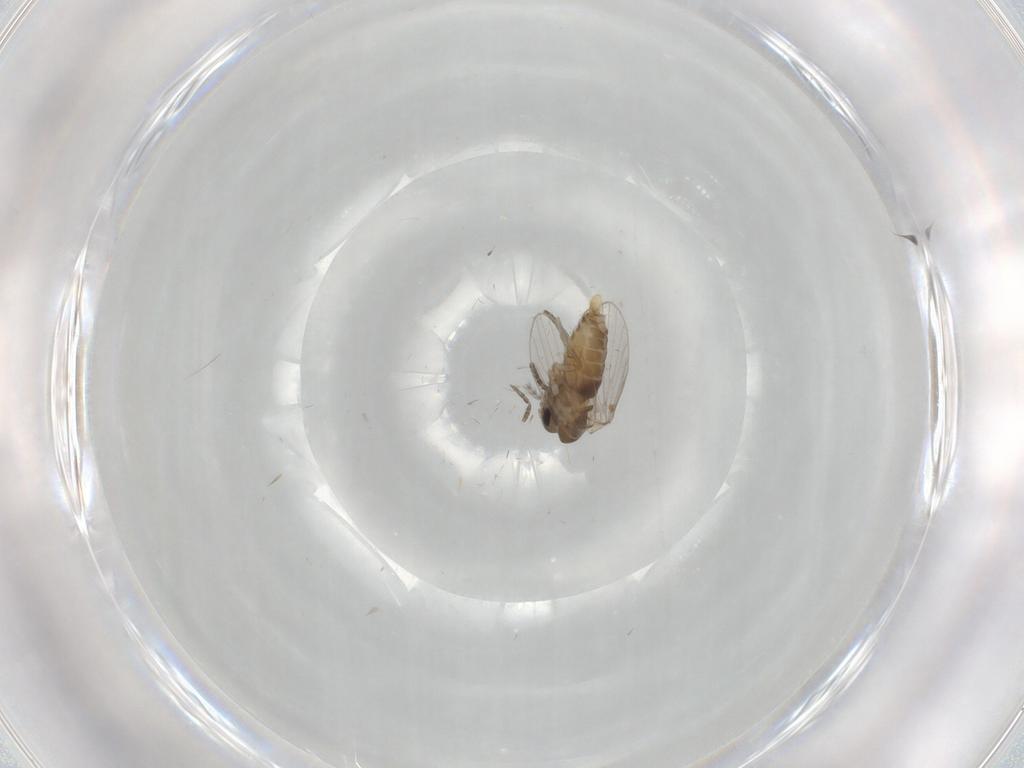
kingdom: Animalia
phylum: Arthropoda
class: Insecta
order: Diptera
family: Psychodidae
